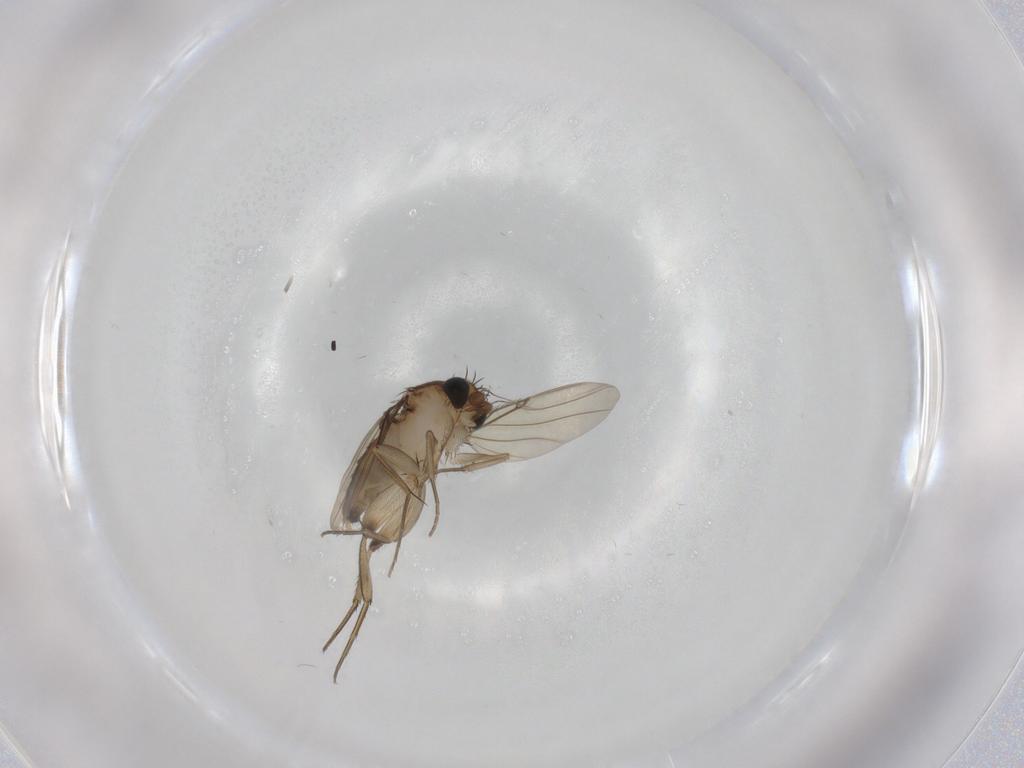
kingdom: Animalia
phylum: Arthropoda
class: Insecta
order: Diptera
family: Phoridae
